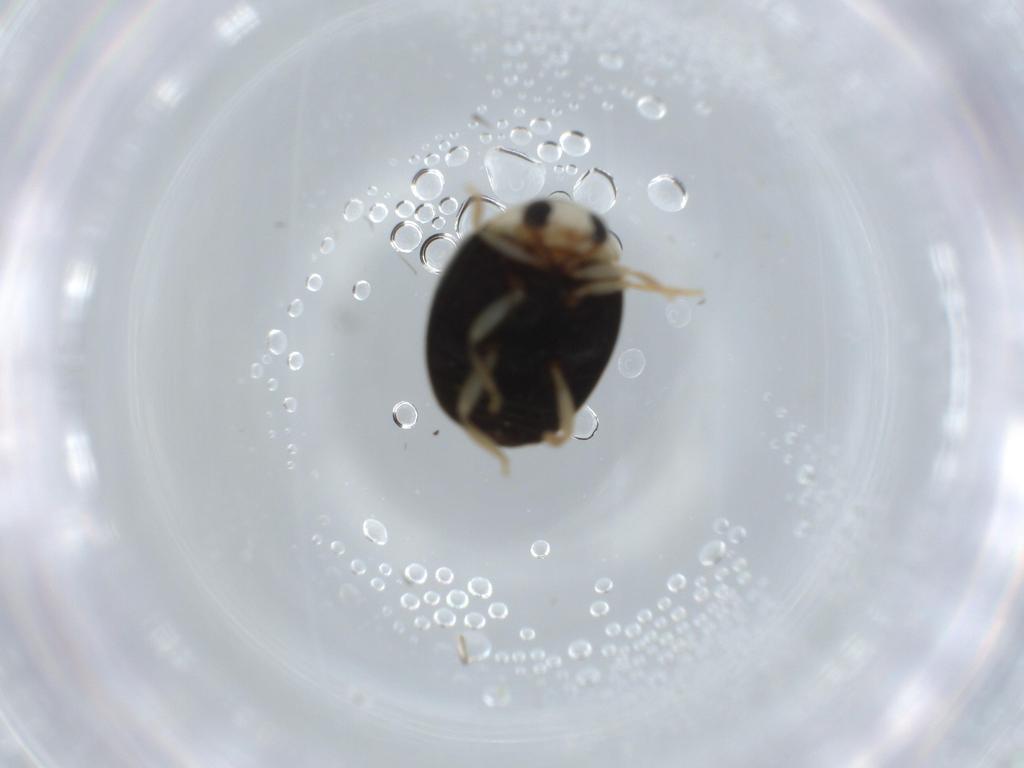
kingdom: Animalia
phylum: Arthropoda
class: Insecta
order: Coleoptera
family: Coccinellidae
